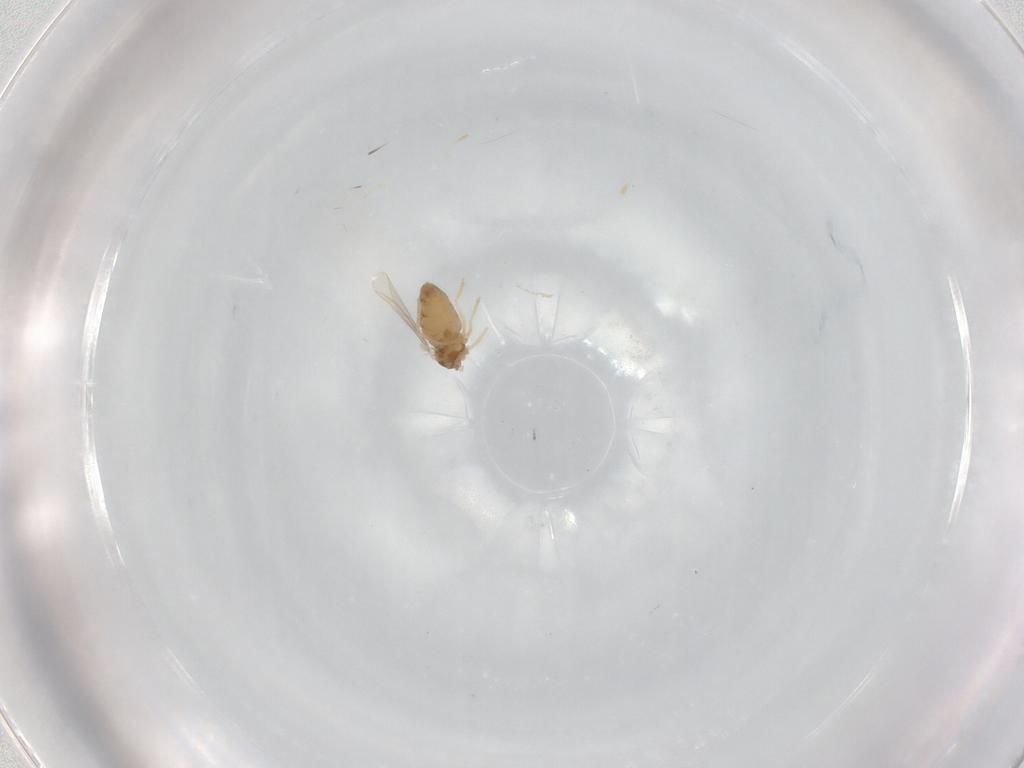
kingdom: Animalia
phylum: Arthropoda
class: Insecta
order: Diptera
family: Cecidomyiidae
